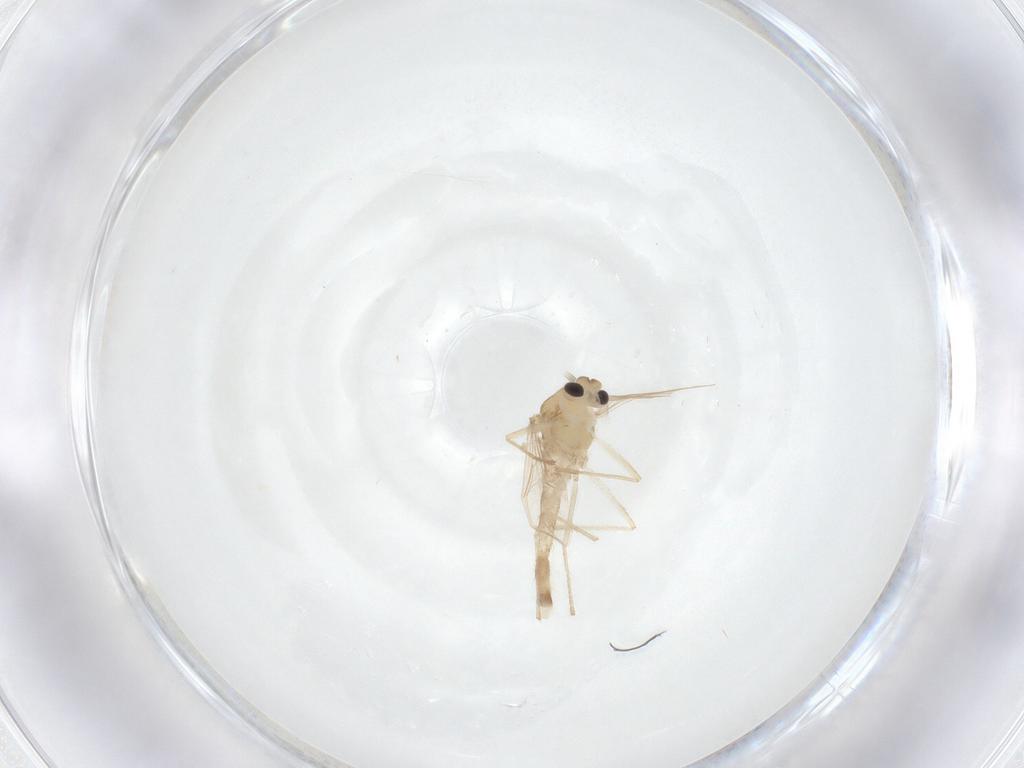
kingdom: Animalia
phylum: Arthropoda
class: Insecta
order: Diptera
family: Chironomidae
